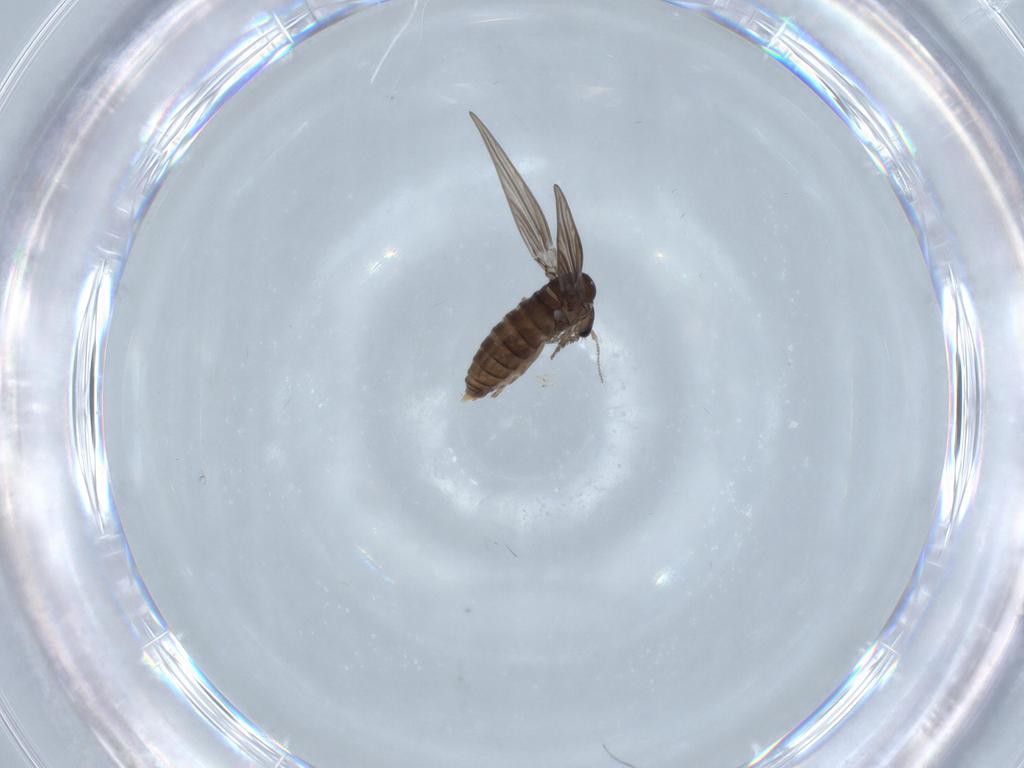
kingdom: Animalia
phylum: Arthropoda
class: Insecta
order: Diptera
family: Psychodidae
